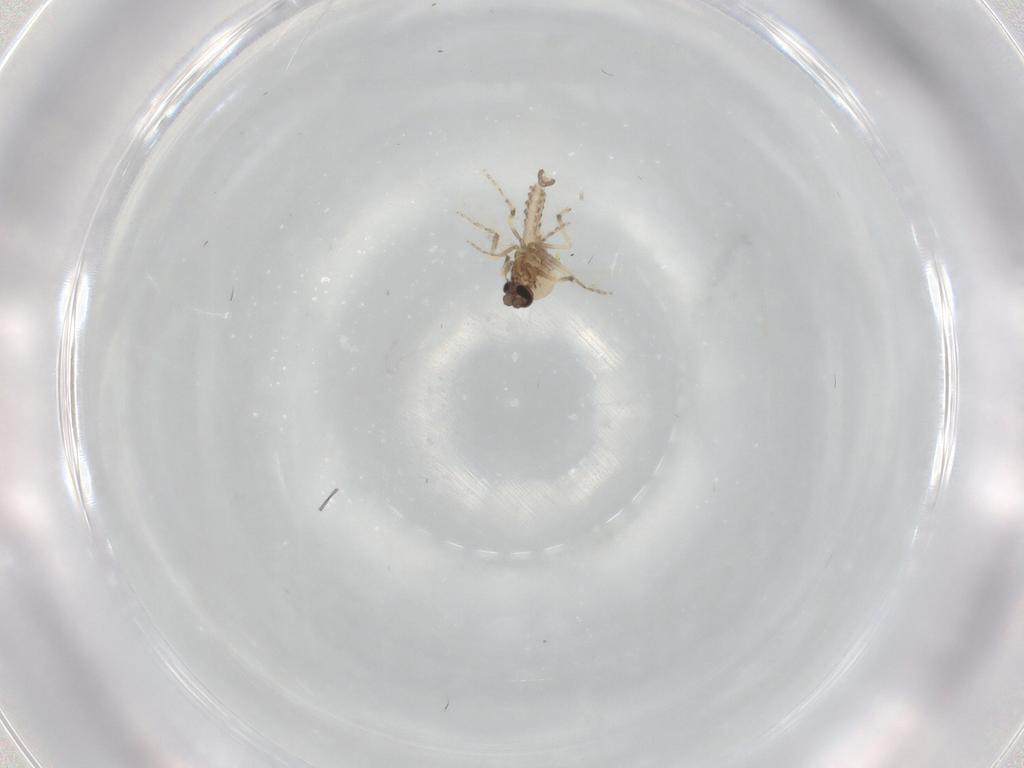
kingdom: Animalia
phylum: Arthropoda
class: Insecta
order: Diptera
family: Ceratopogonidae
